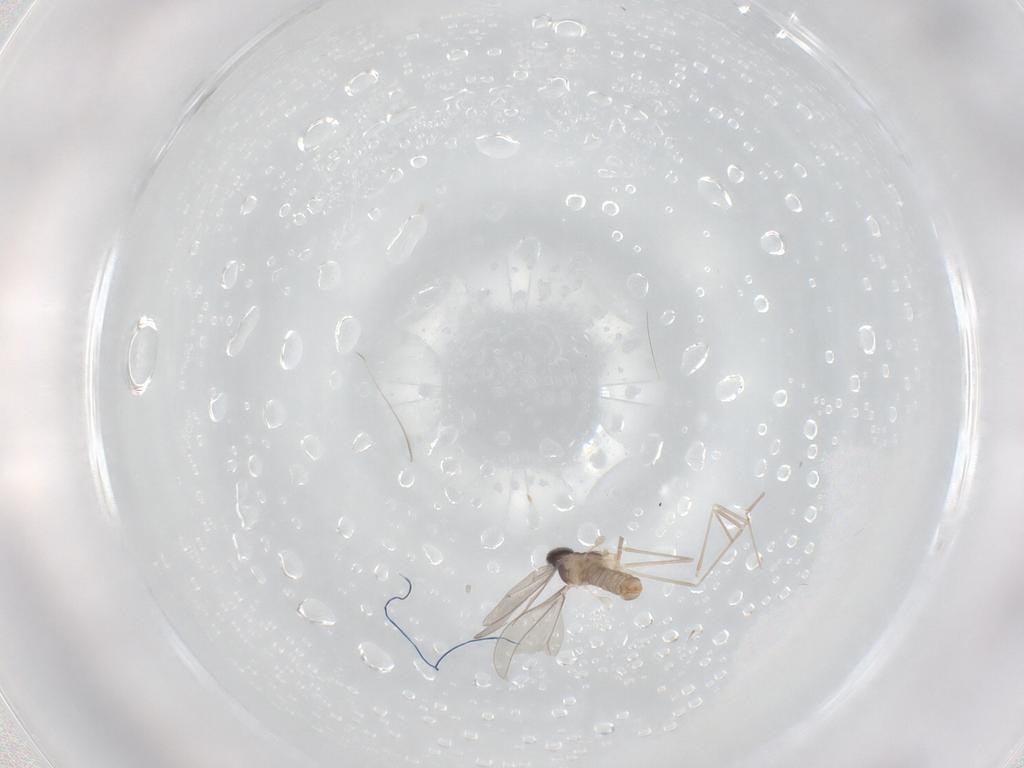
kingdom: Animalia
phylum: Arthropoda
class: Insecta
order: Diptera
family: Cecidomyiidae
